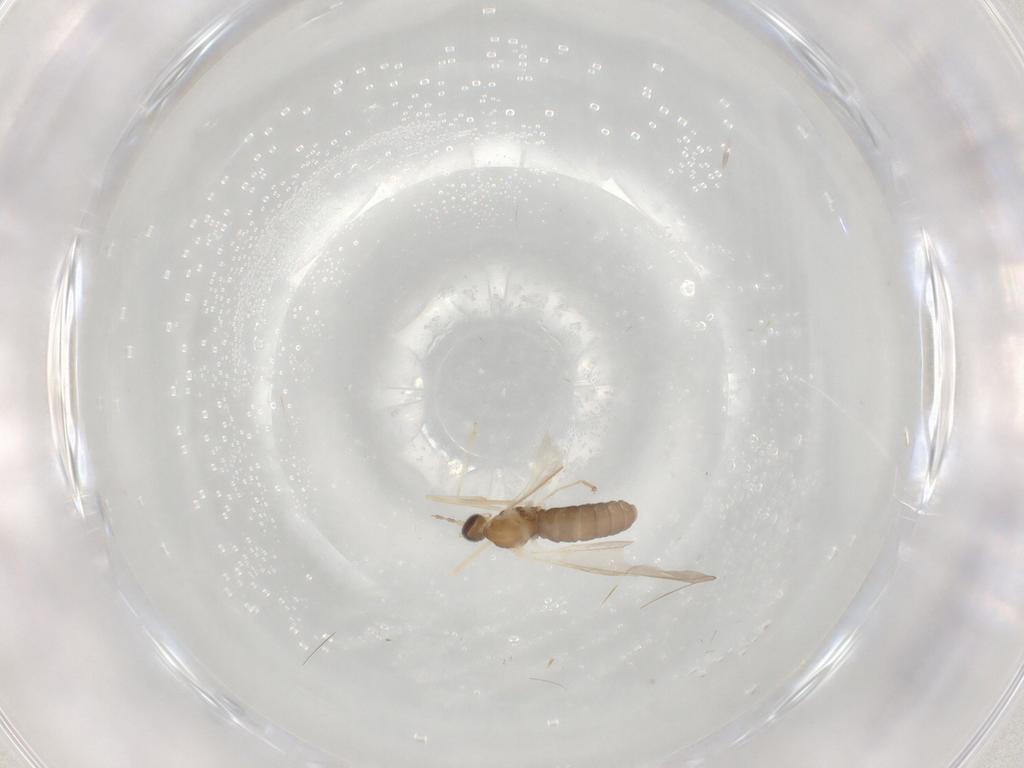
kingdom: Animalia
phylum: Arthropoda
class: Insecta
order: Diptera
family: Cecidomyiidae
